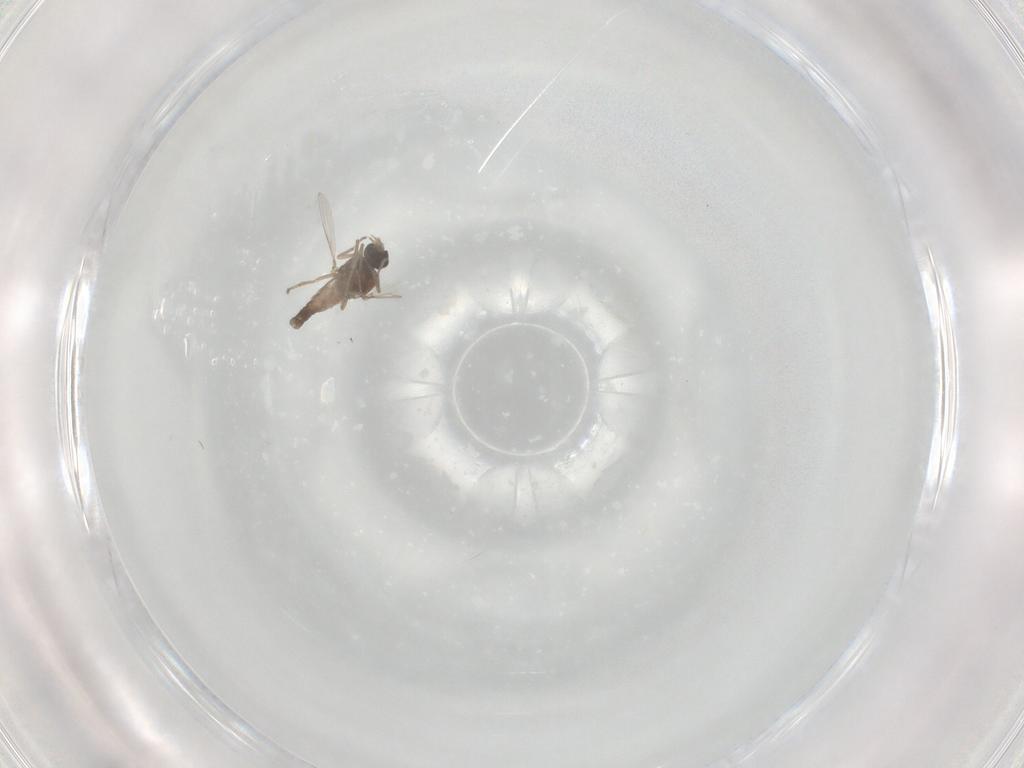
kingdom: Animalia
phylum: Arthropoda
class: Insecta
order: Diptera
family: Ceratopogonidae
